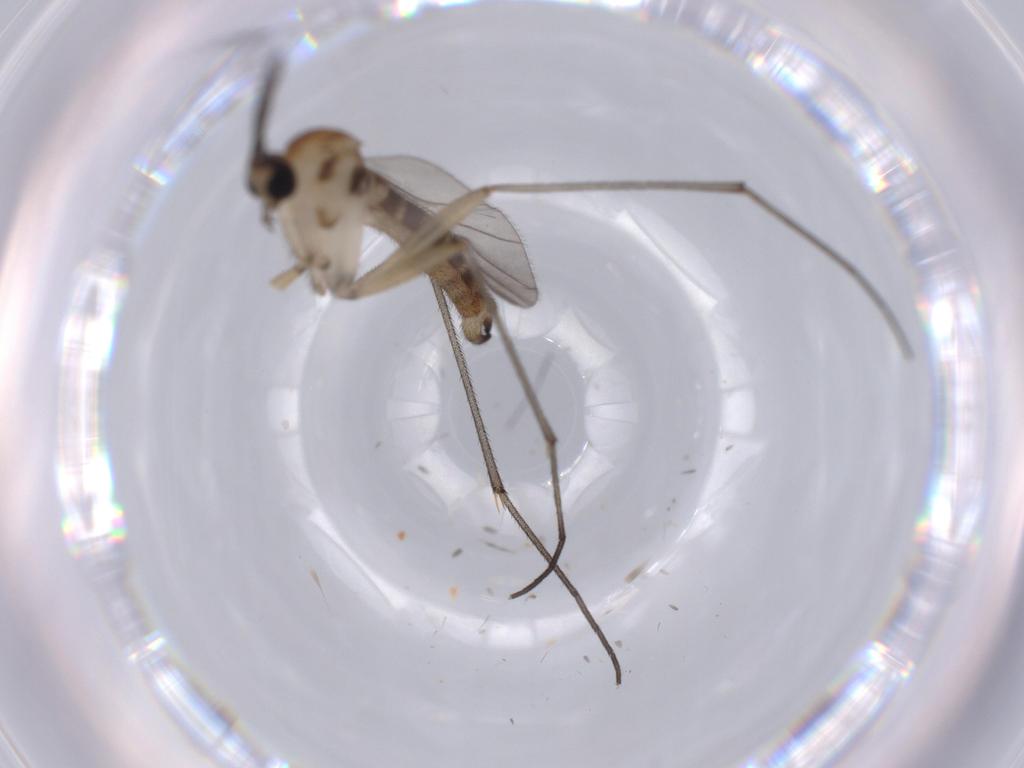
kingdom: Animalia
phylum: Arthropoda
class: Insecta
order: Diptera
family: Sciaridae
